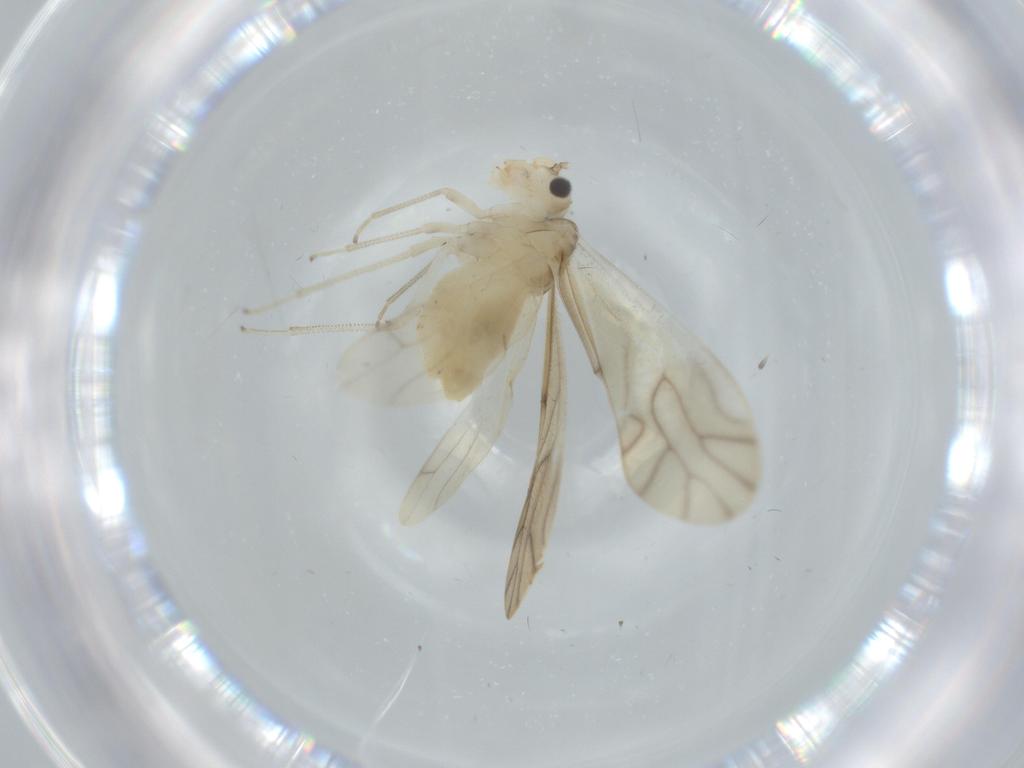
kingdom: Animalia
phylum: Arthropoda
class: Insecta
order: Psocodea
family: Caeciliusidae
